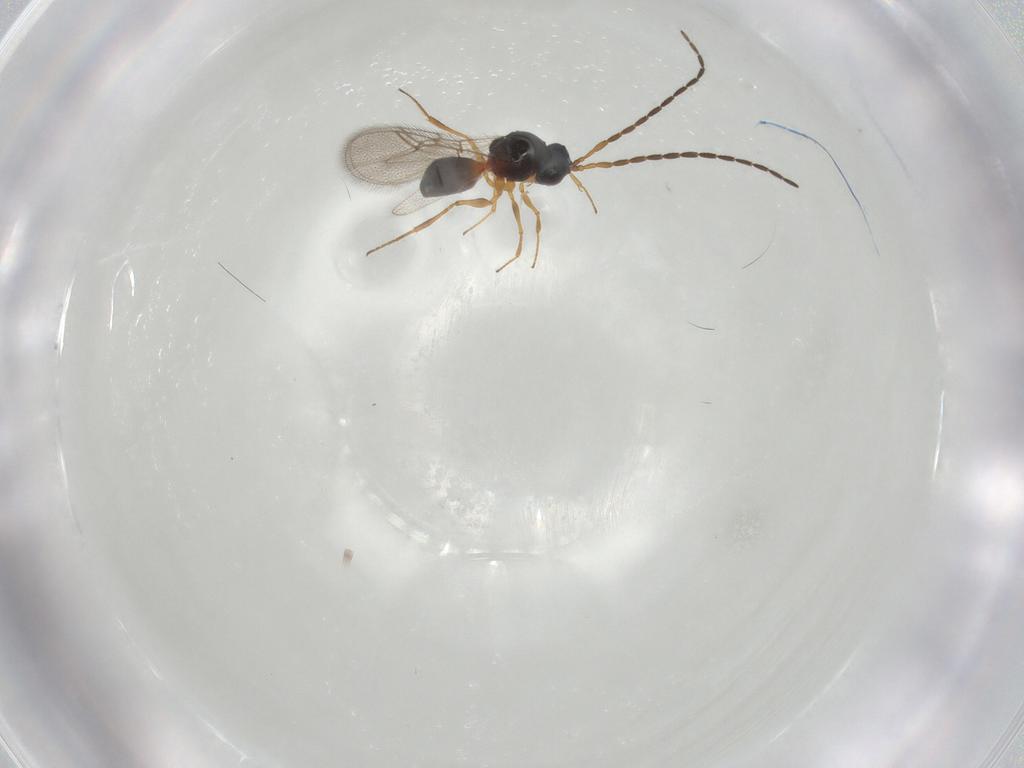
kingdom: Animalia
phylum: Arthropoda
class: Insecta
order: Hymenoptera
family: Figitidae
